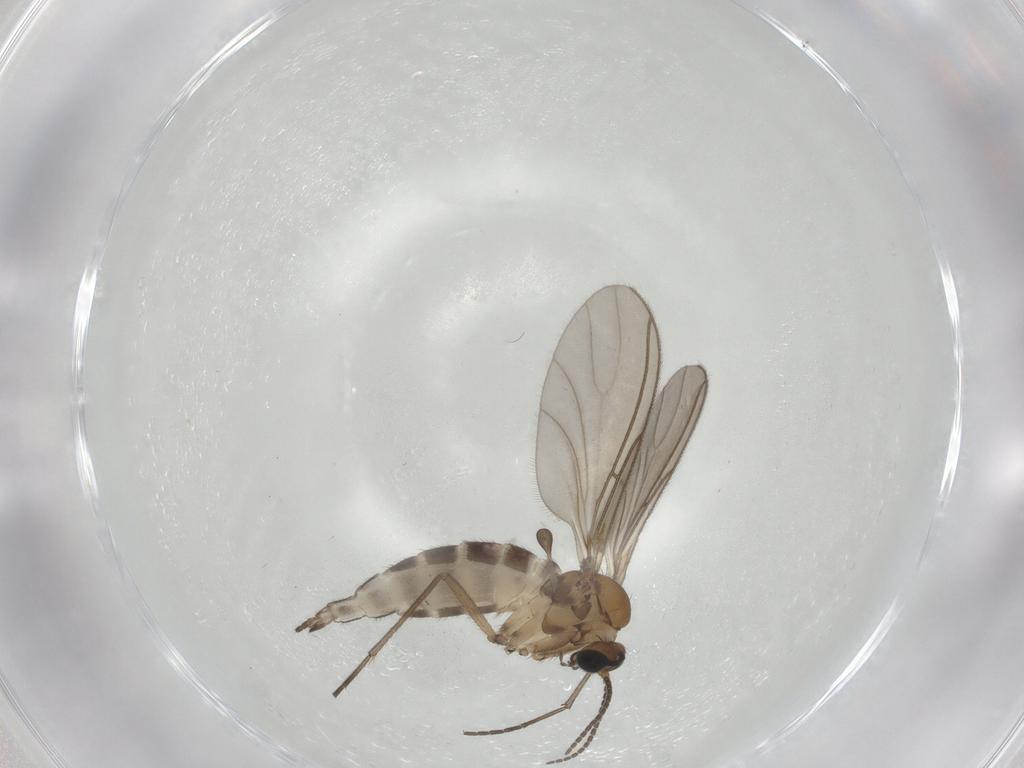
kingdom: Animalia
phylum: Arthropoda
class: Insecta
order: Diptera
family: Sciaridae
